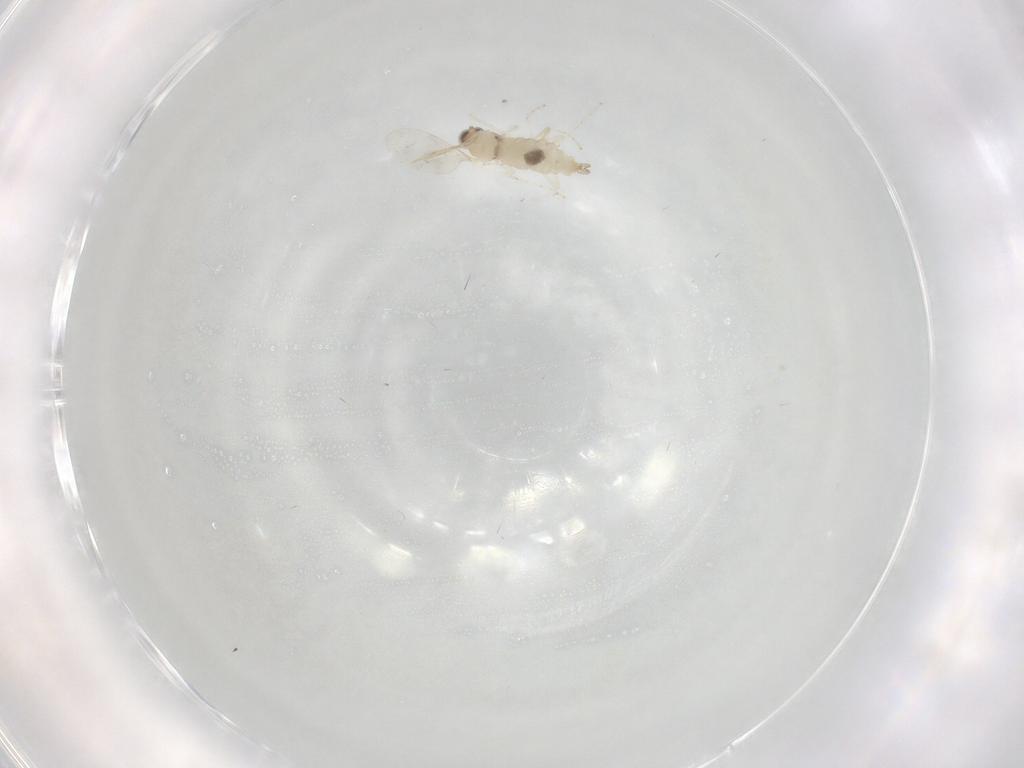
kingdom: Animalia
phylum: Arthropoda
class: Insecta
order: Diptera
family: Cecidomyiidae
